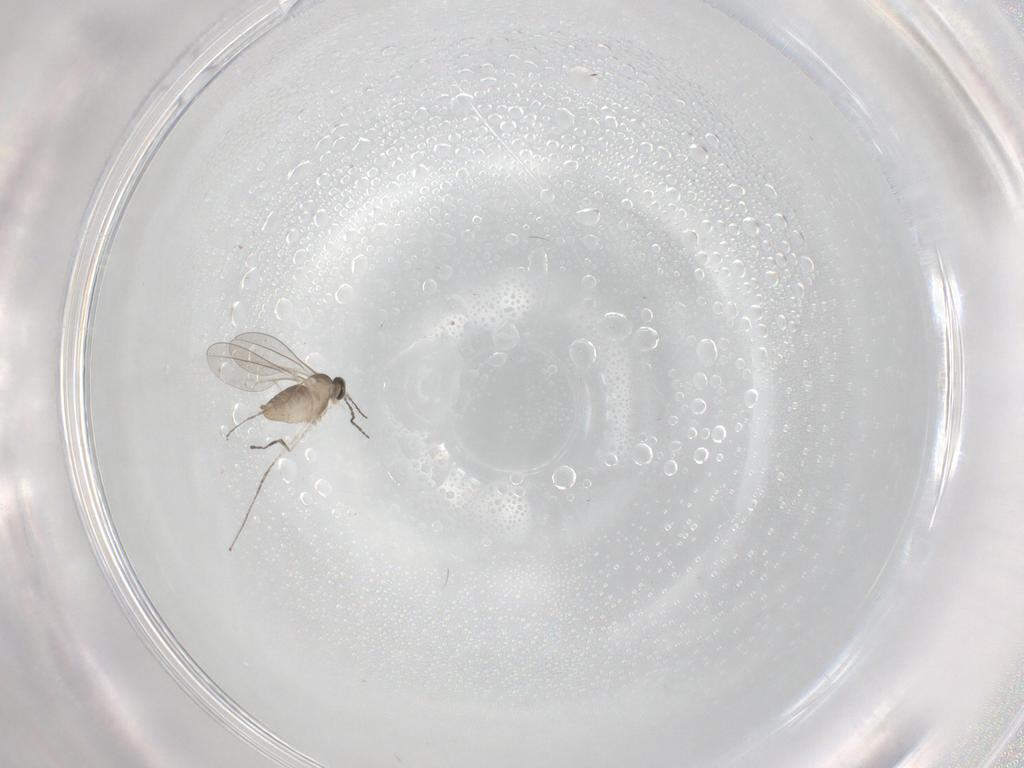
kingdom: Animalia
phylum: Arthropoda
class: Insecta
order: Diptera
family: Cecidomyiidae
